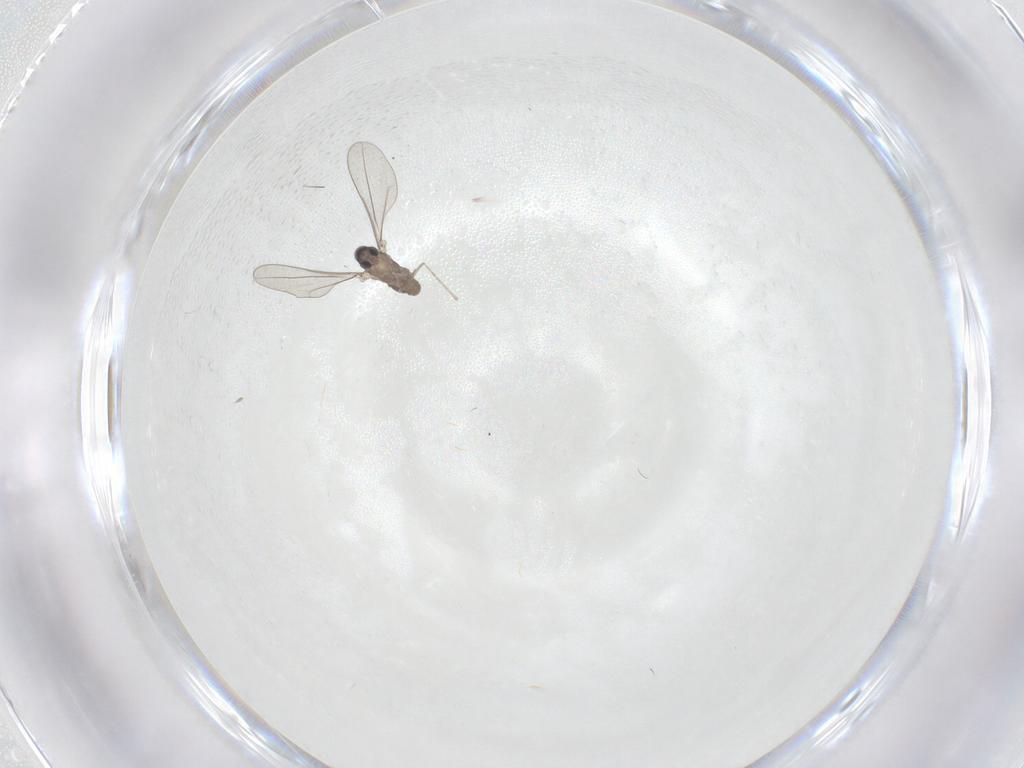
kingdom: Animalia
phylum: Arthropoda
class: Insecta
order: Diptera
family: Cecidomyiidae
